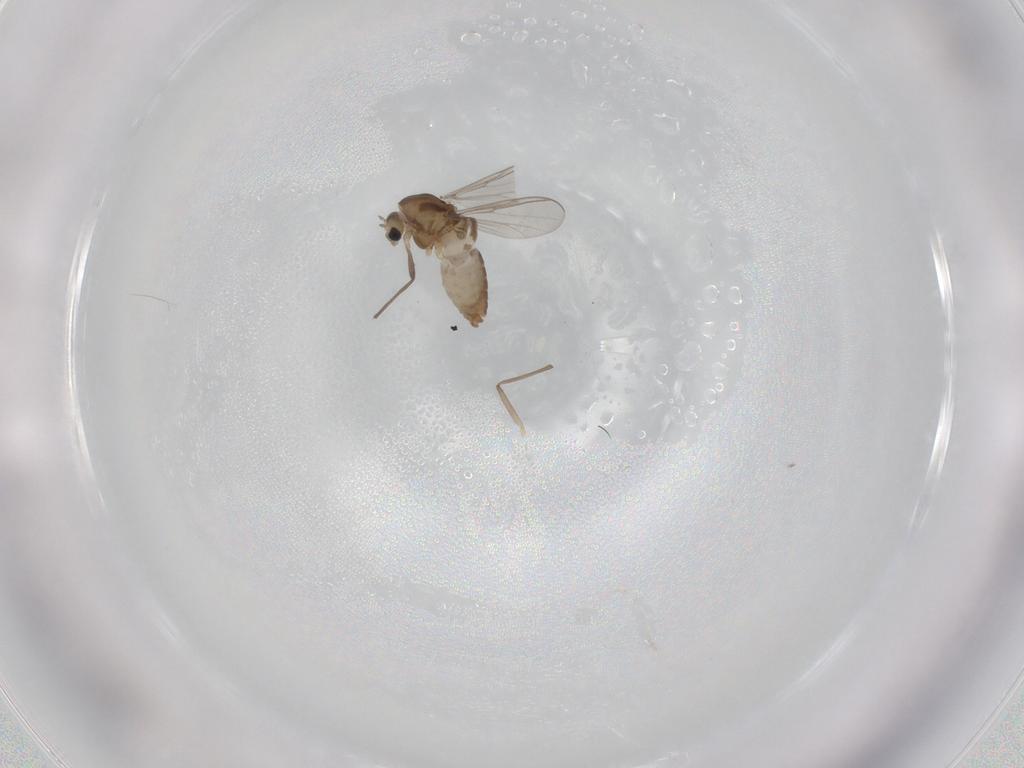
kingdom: Animalia
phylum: Arthropoda
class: Insecta
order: Diptera
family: Chironomidae
